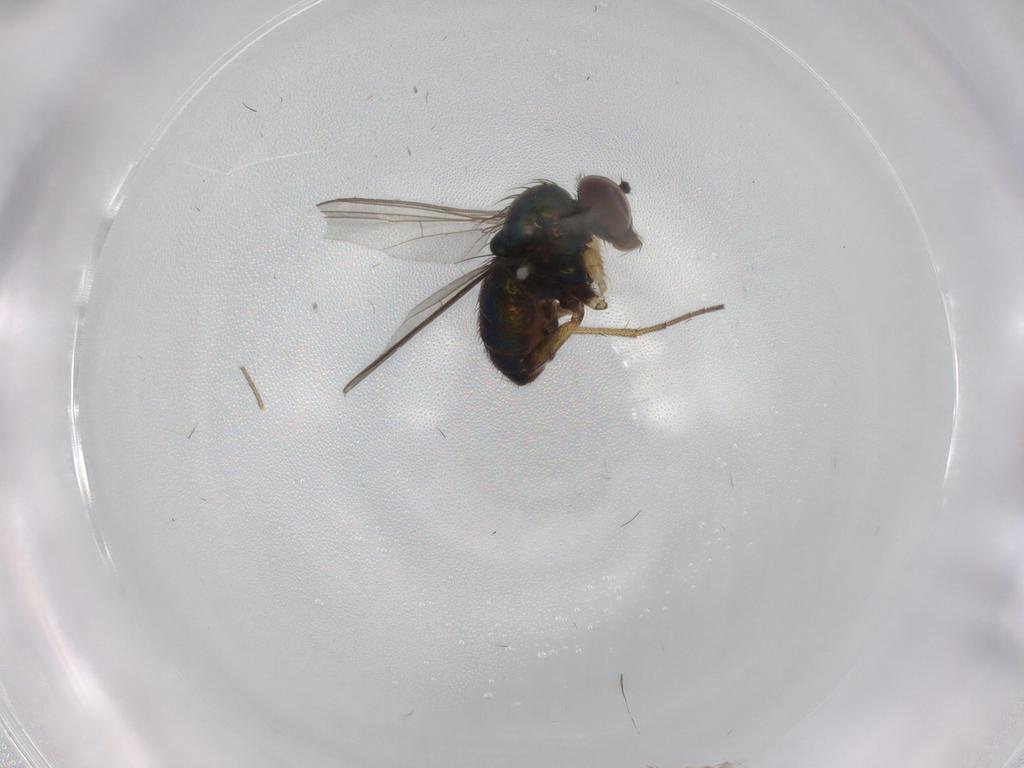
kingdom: Animalia
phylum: Arthropoda
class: Insecta
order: Diptera
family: Dolichopodidae
